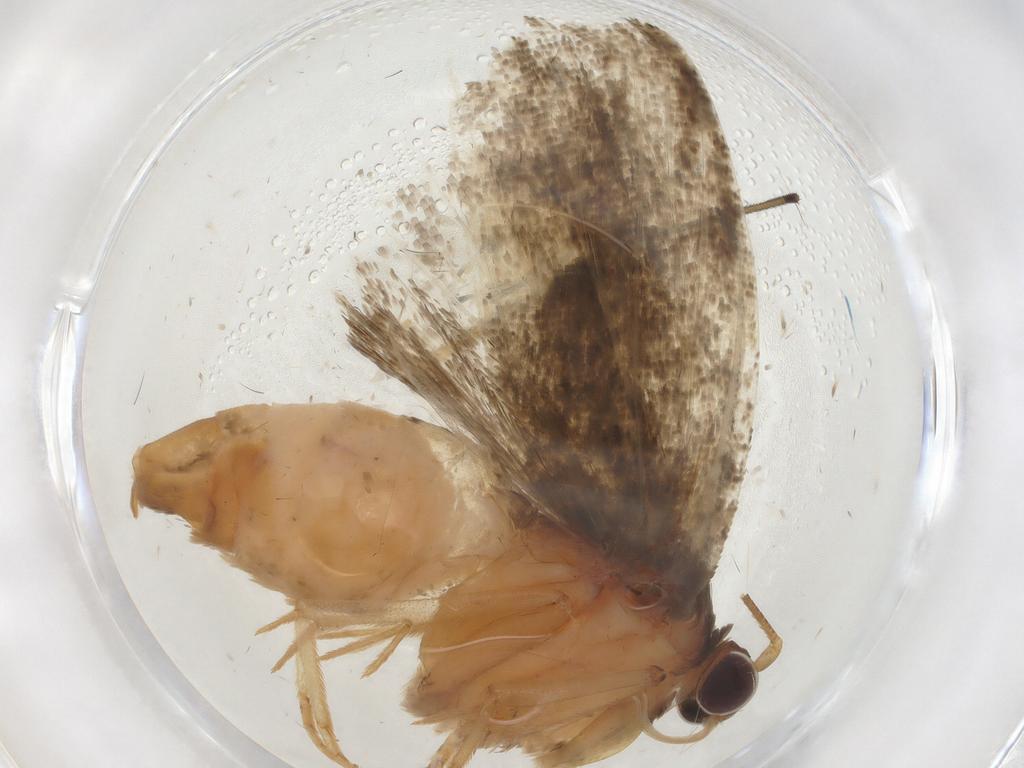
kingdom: Animalia
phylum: Arthropoda
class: Insecta
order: Lepidoptera
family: Tortricidae
